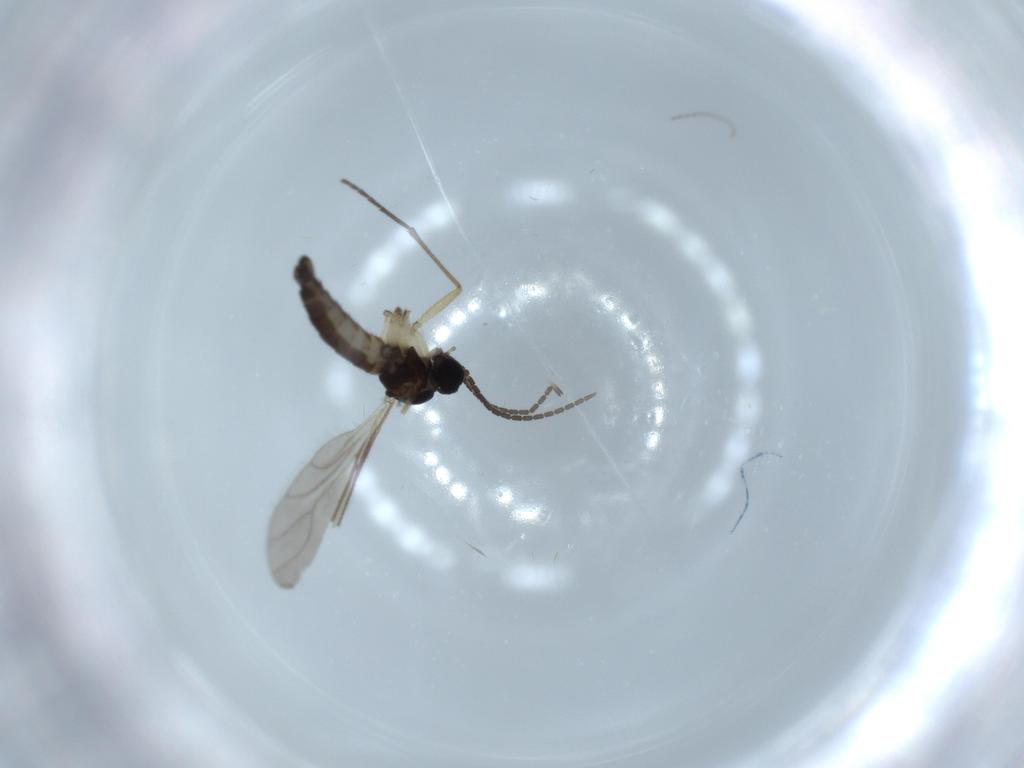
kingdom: Animalia
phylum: Arthropoda
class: Insecta
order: Diptera
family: Sciaridae
